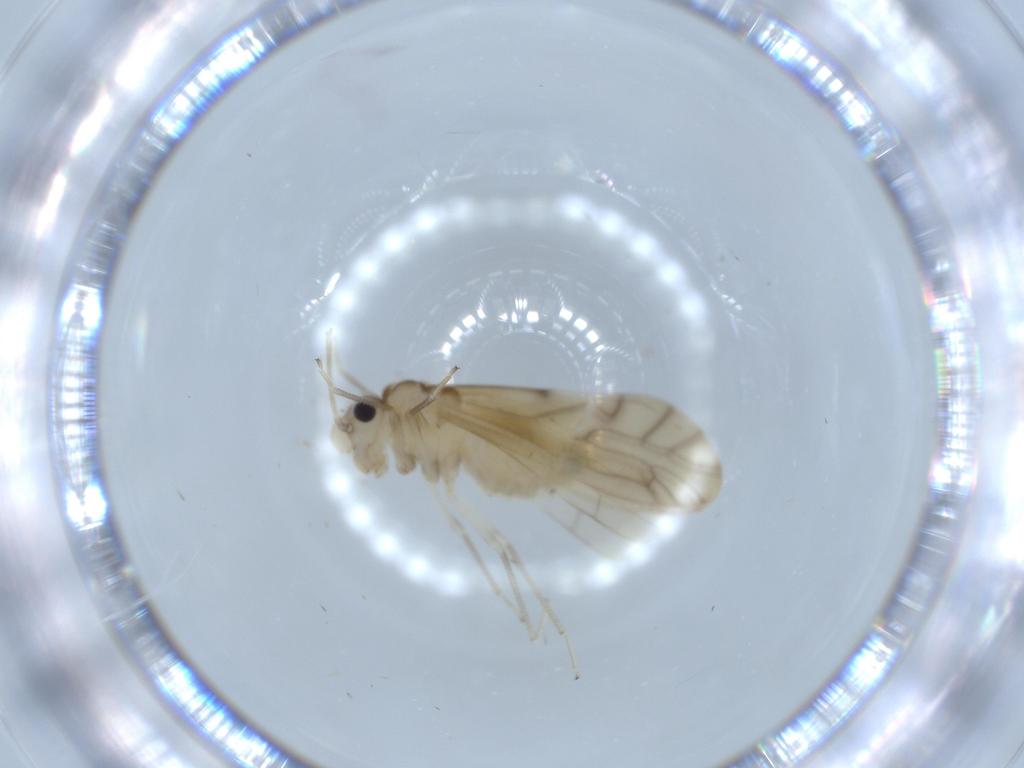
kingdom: Animalia
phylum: Arthropoda
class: Insecta
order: Psocodea
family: Caeciliusidae
